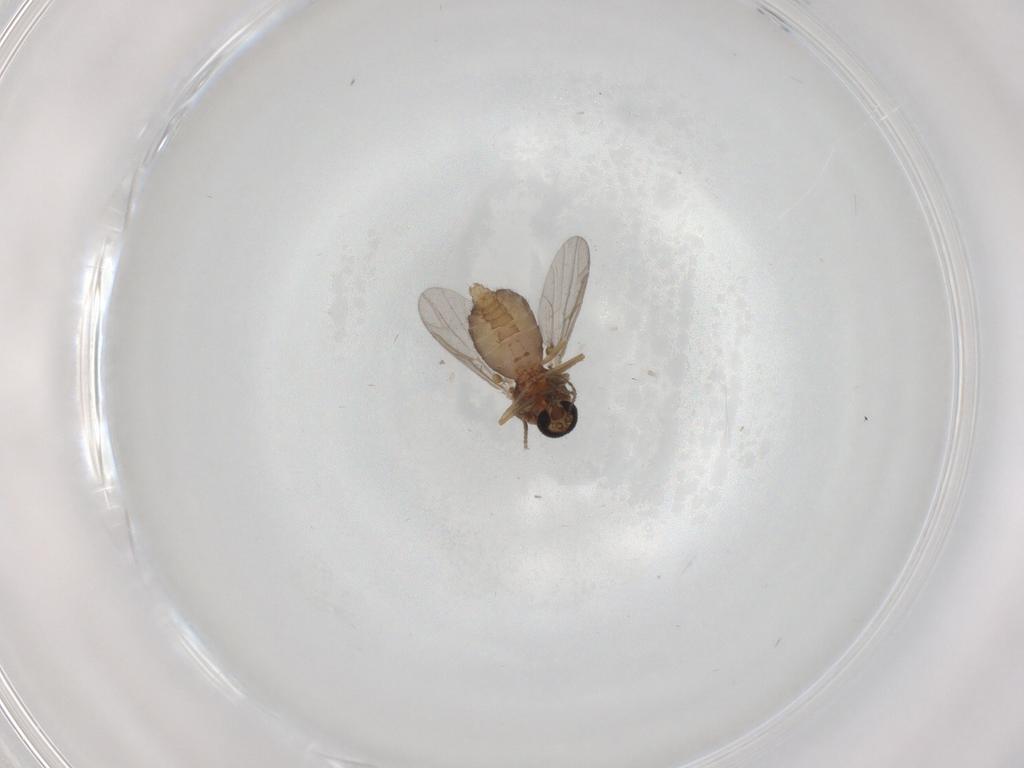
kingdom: Animalia
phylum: Arthropoda
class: Insecta
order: Diptera
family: Ceratopogonidae
